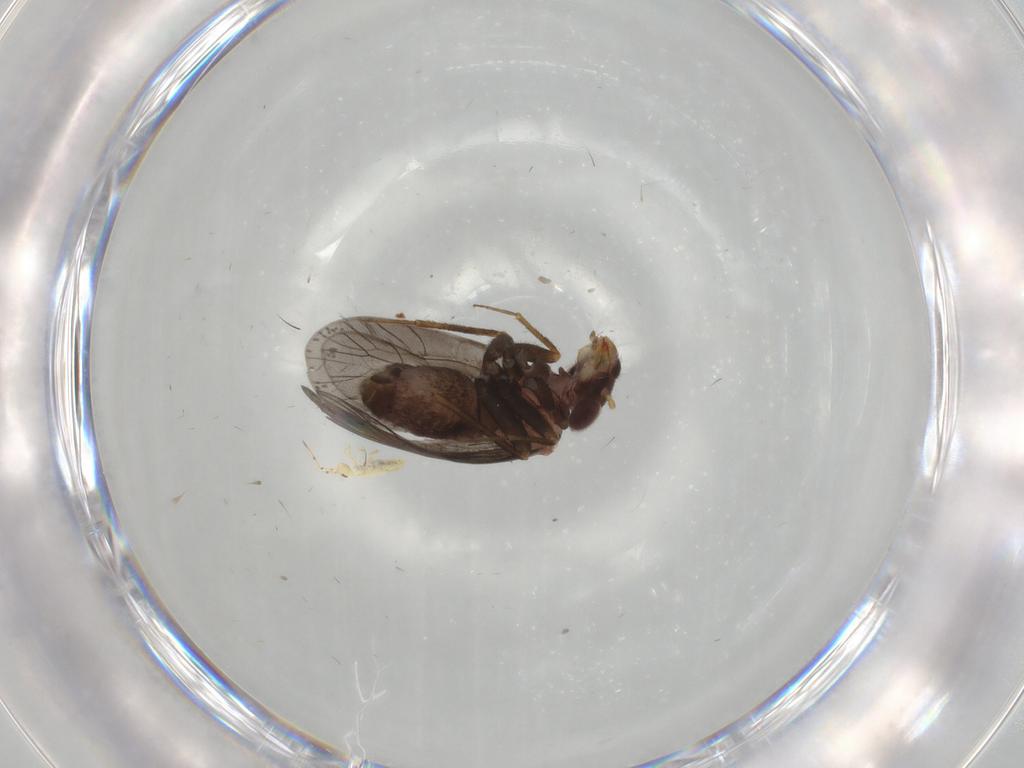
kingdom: Animalia
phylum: Arthropoda
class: Insecta
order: Psocodea
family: Lepidopsocidae
